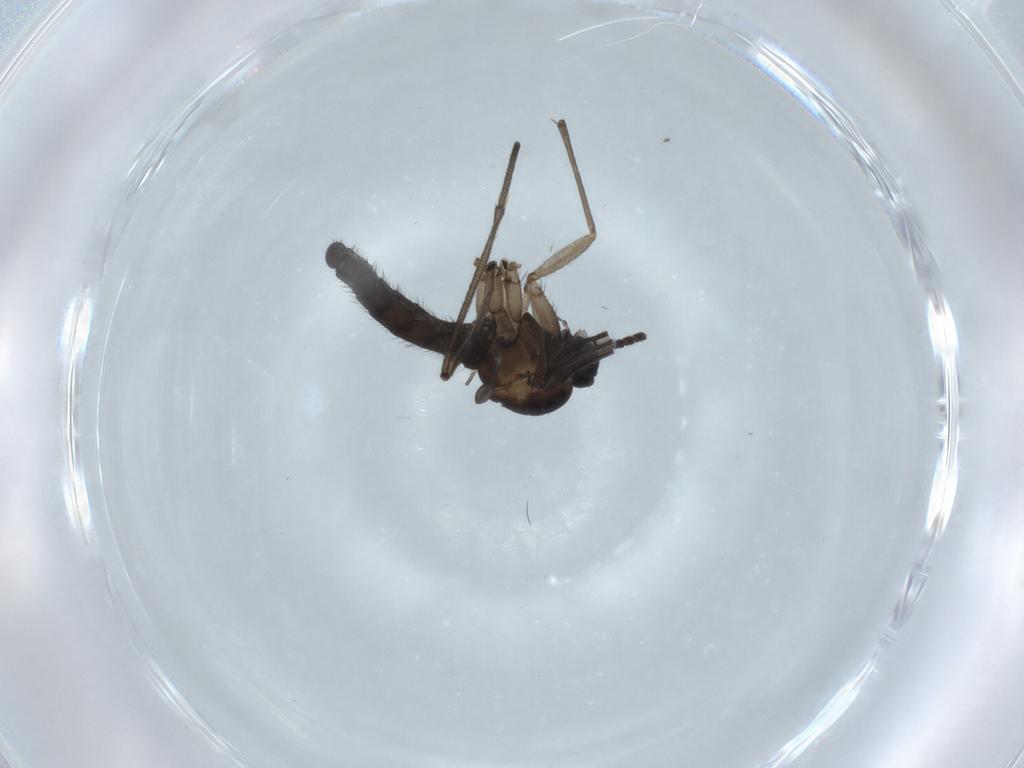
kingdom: Animalia
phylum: Arthropoda
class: Insecta
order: Diptera
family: Sciaridae
